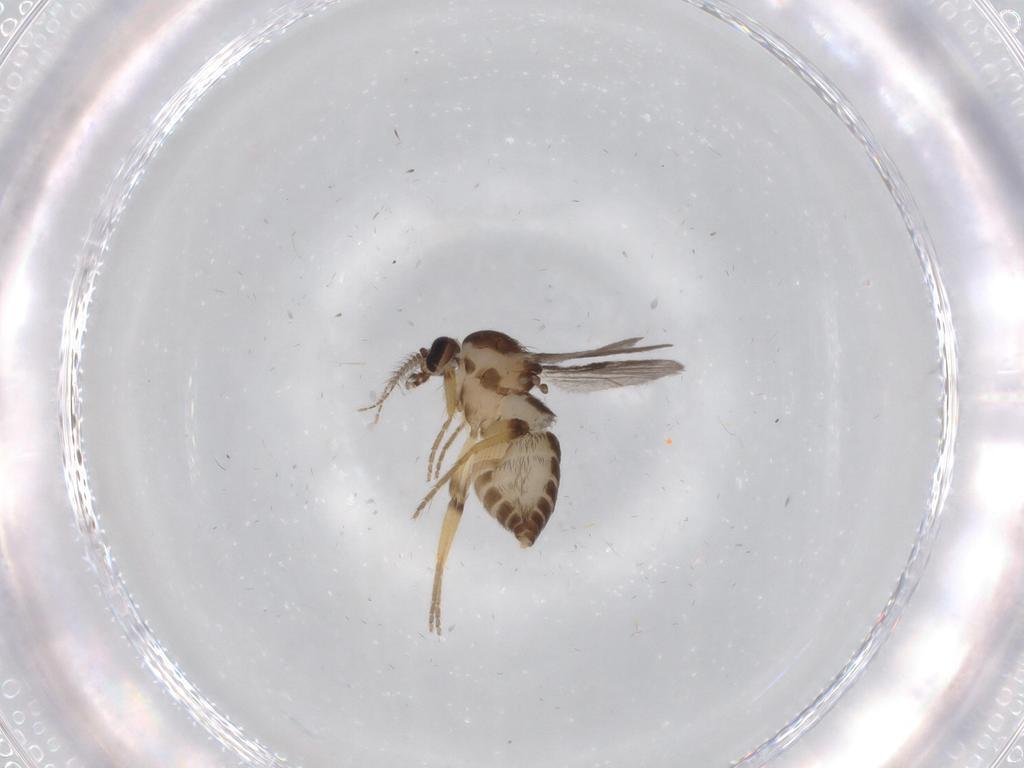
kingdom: Animalia
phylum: Arthropoda
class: Insecta
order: Diptera
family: Ceratopogonidae
